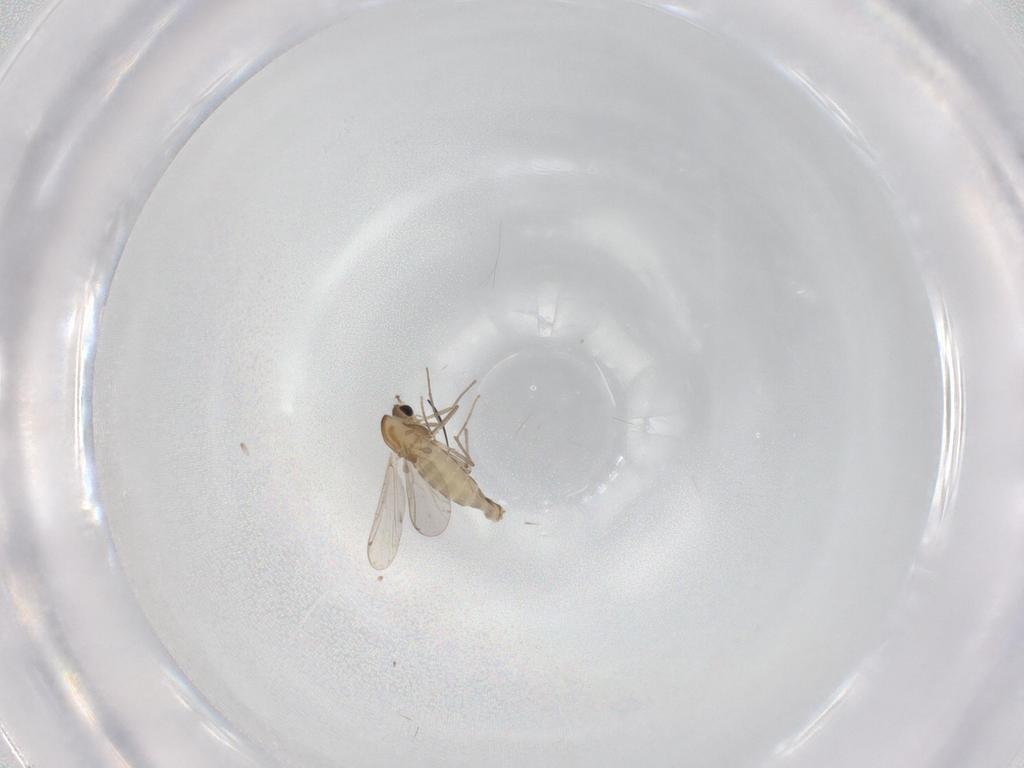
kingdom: Animalia
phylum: Arthropoda
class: Insecta
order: Diptera
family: Chironomidae
